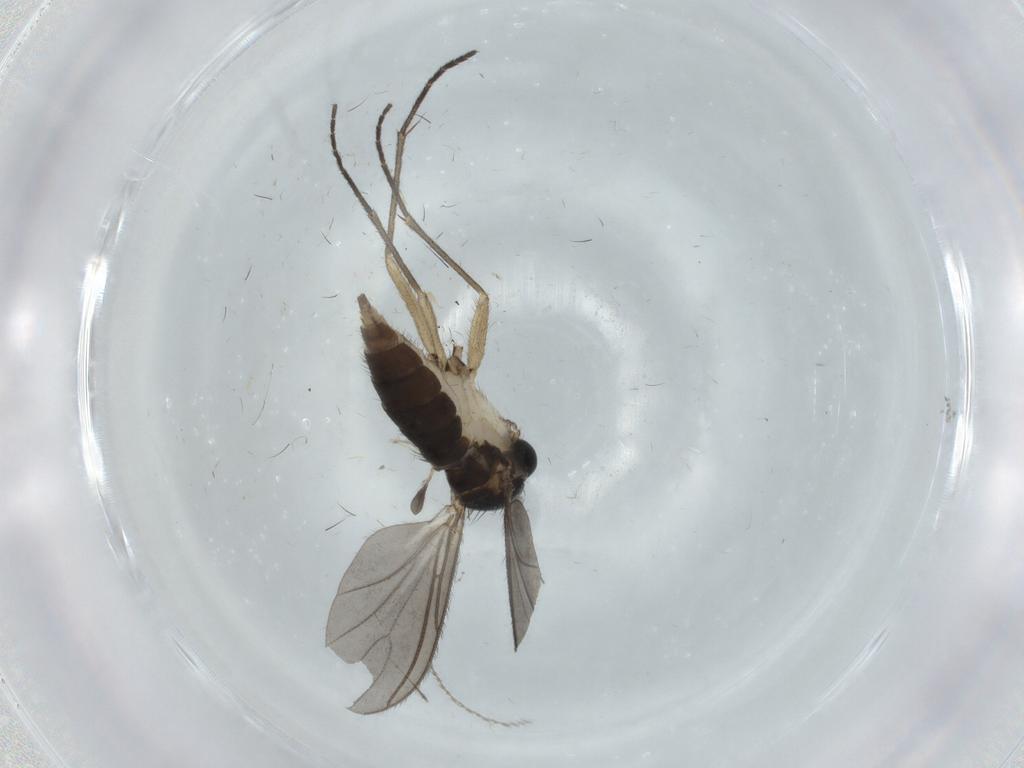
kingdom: Animalia
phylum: Arthropoda
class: Insecta
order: Diptera
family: Sciaridae
